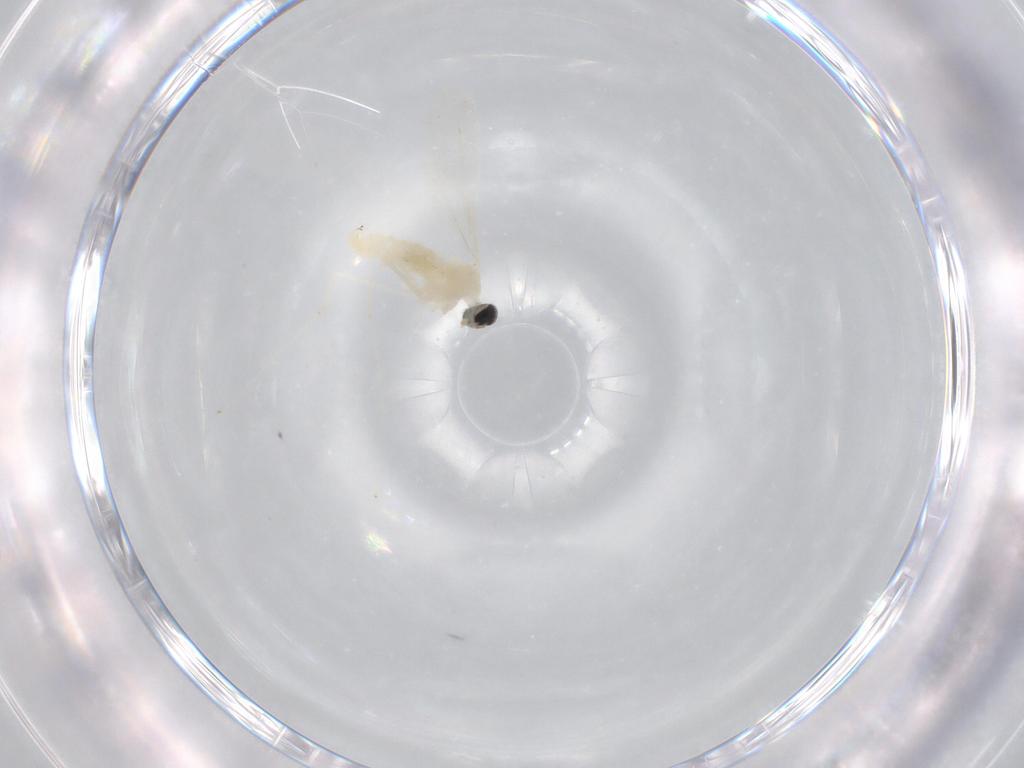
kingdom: Animalia
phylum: Arthropoda
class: Insecta
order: Diptera
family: Cecidomyiidae
